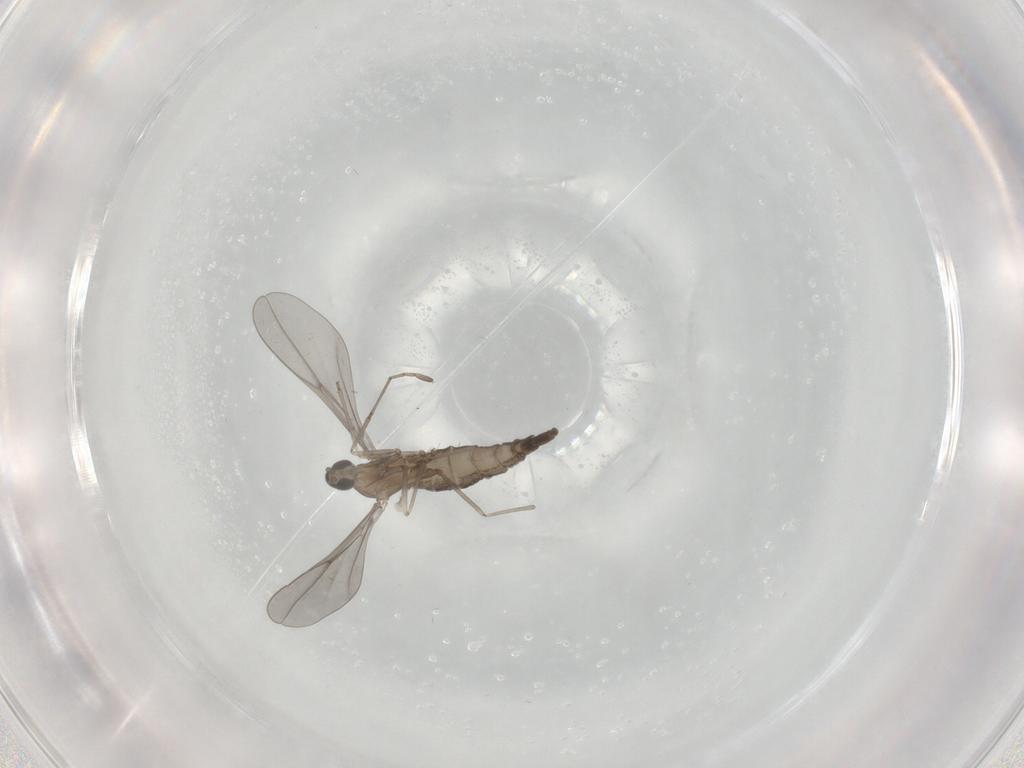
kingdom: Animalia
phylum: Arthropoda
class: Insecta
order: Diptera
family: Cecidomyiidae
